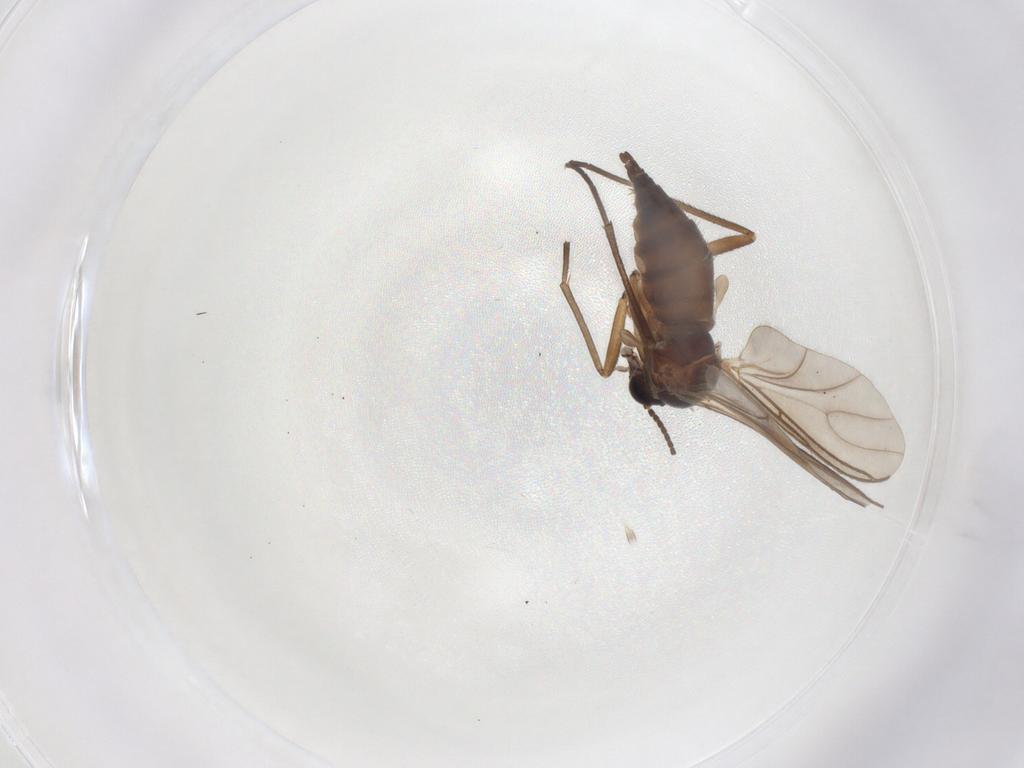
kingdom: Animalia
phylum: Arthropoda
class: Insecta
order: Diptera
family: Sciaridae
